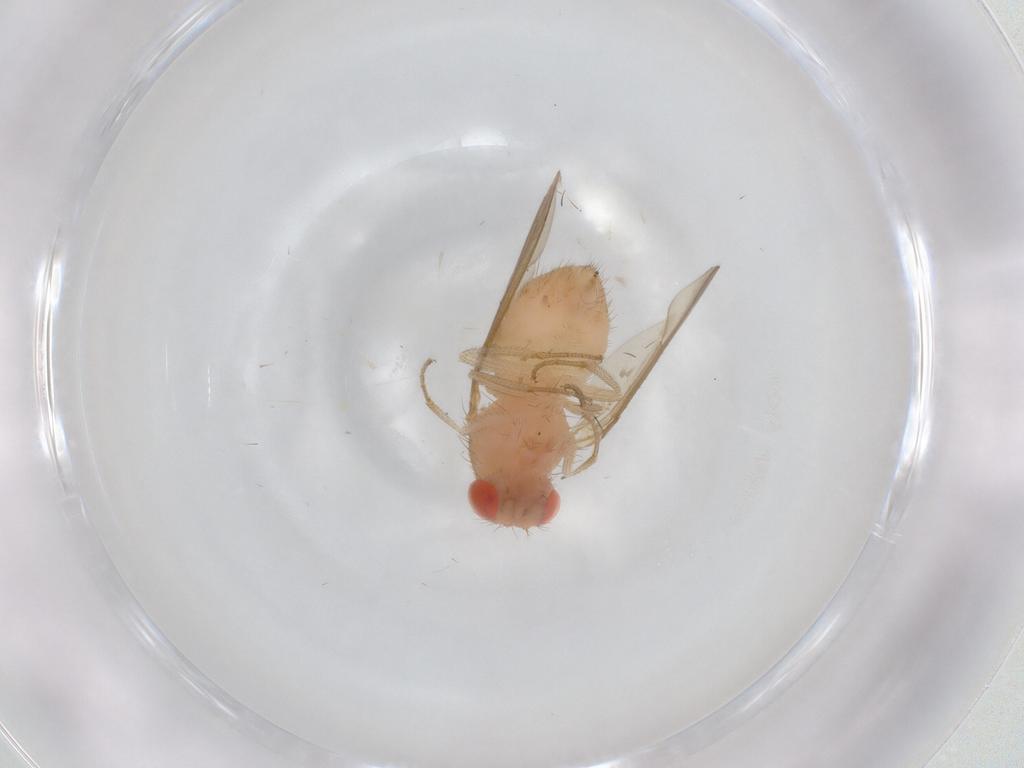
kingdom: Animalia
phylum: Arthropoda
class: Insecta
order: Diptera
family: Drosophilidae
